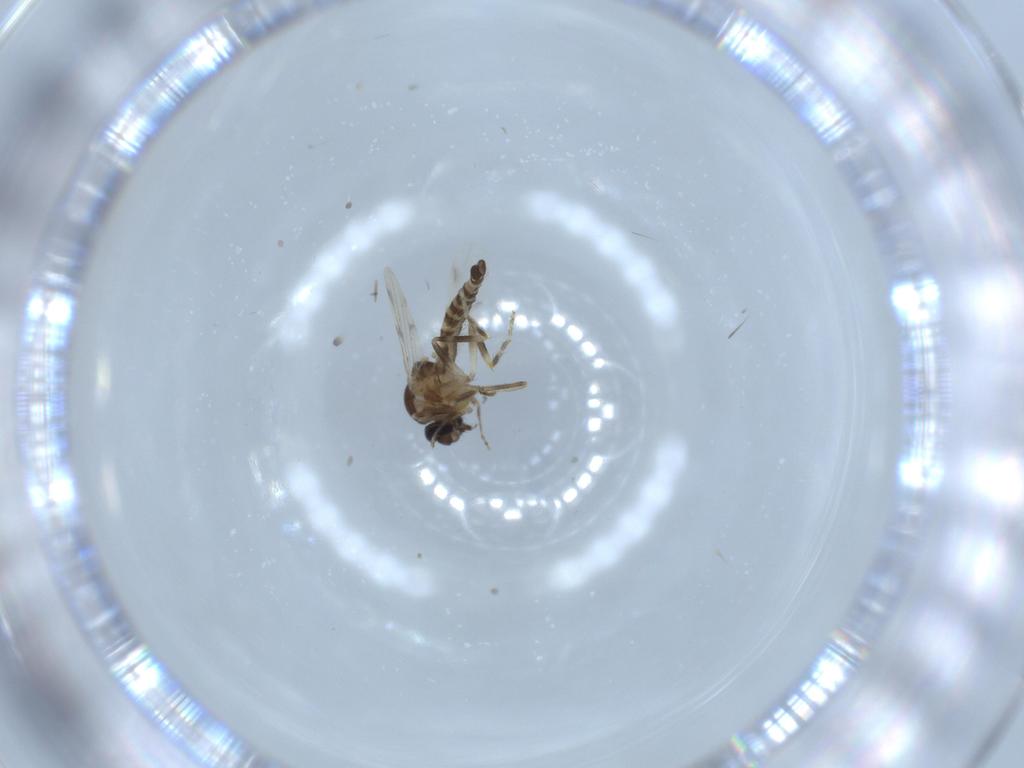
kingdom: Animalia
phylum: Arthropoda
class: Insecta
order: Diptera
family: Ceratopogonidae
